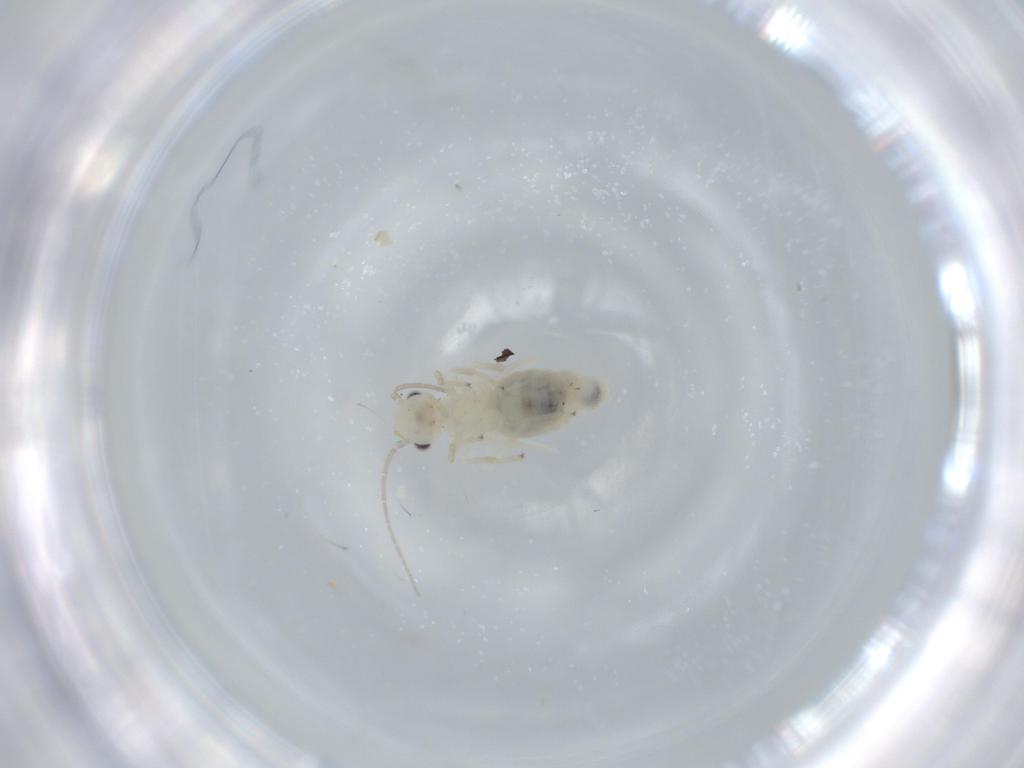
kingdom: Animalia
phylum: Arthropoda
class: Insecta
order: Psocodea
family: Caeciliusidae
